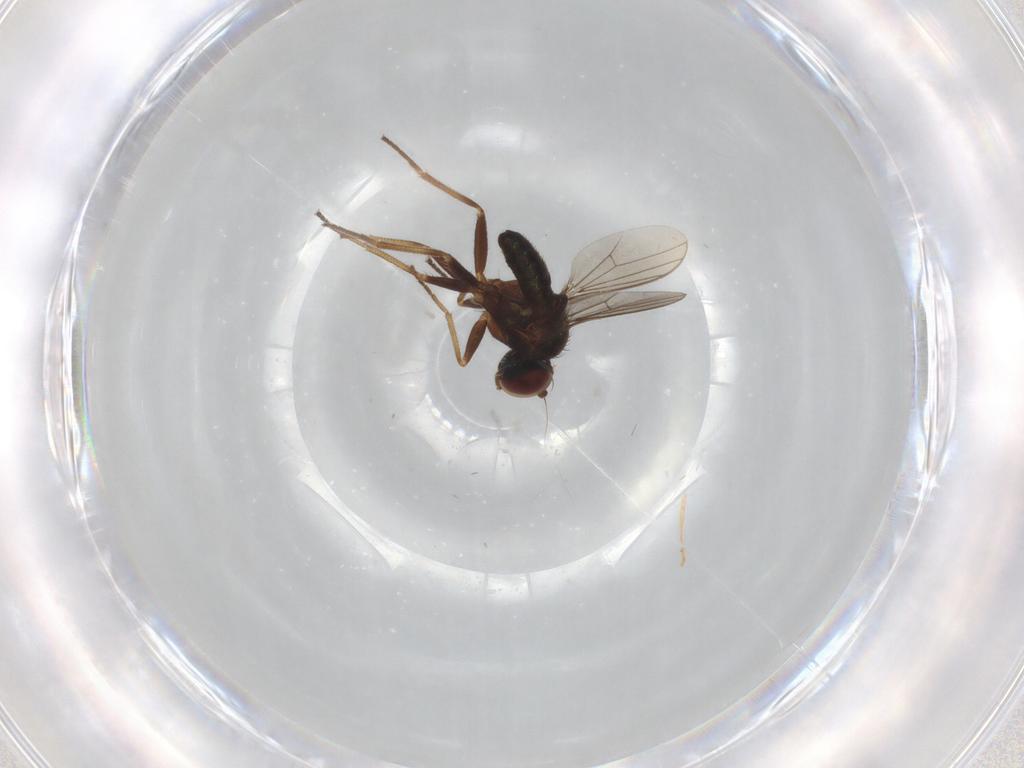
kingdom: Animalia
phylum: Arthropoda
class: Insecta
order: Diptera
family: Dolichopodidae
